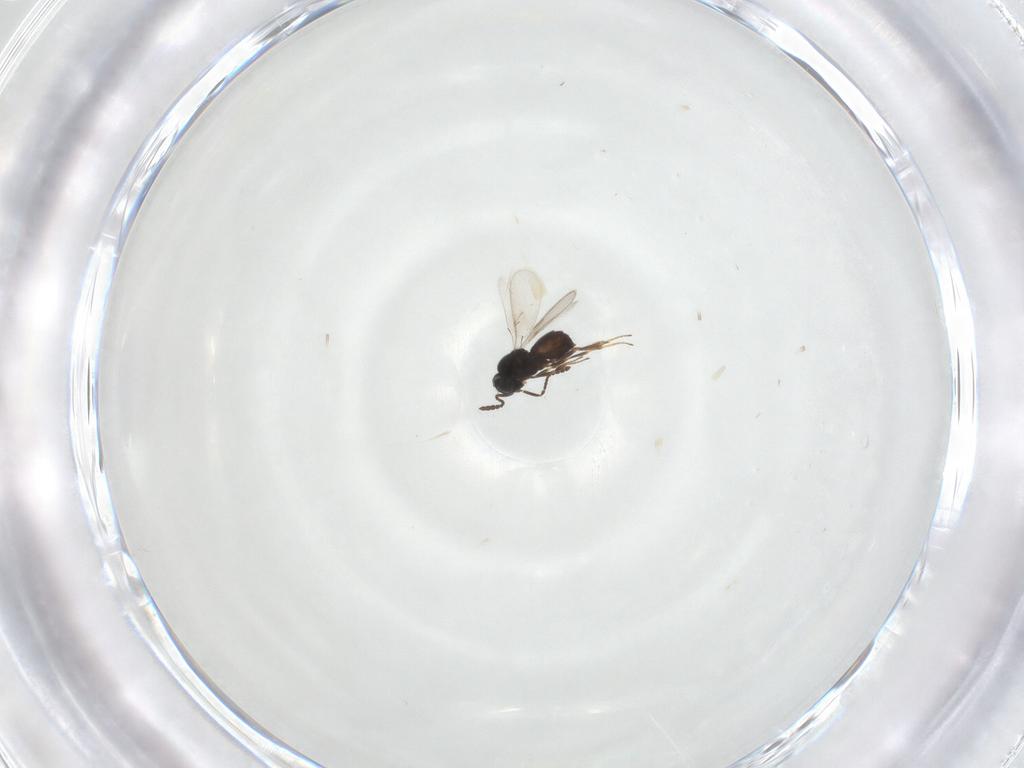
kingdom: Animalia
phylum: Arthropoda
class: Insecta
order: Hymenoptera
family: Scelionidae
